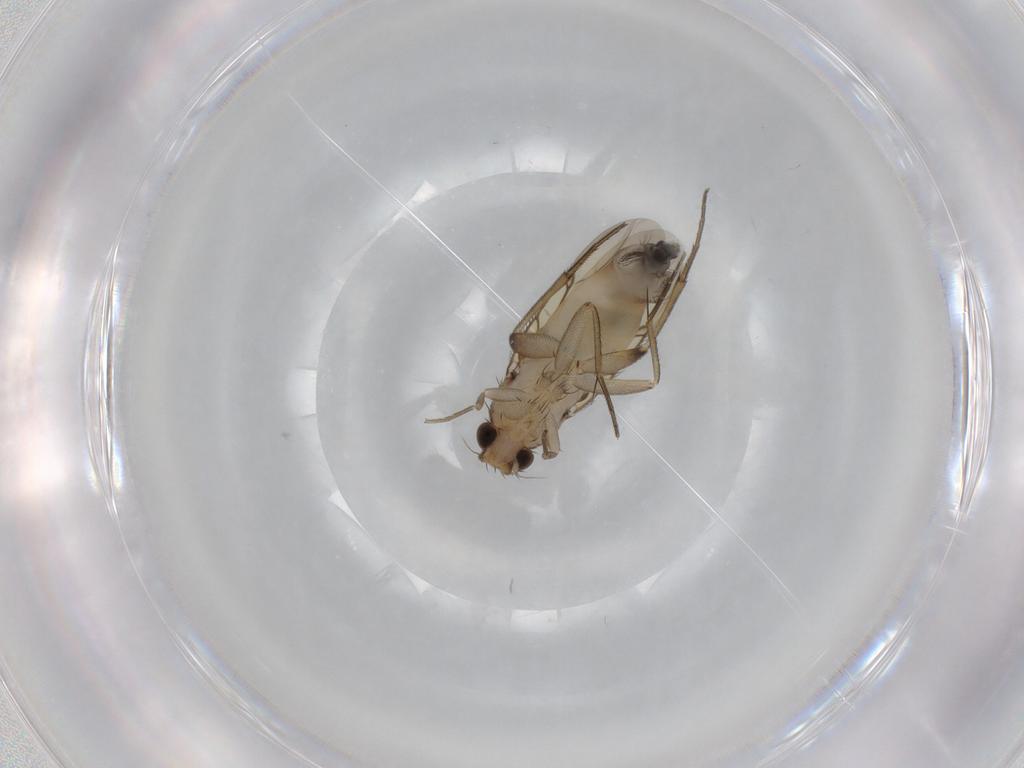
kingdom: Animalia
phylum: Arthropoda
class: Insecta
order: Diptera
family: Phoridae
